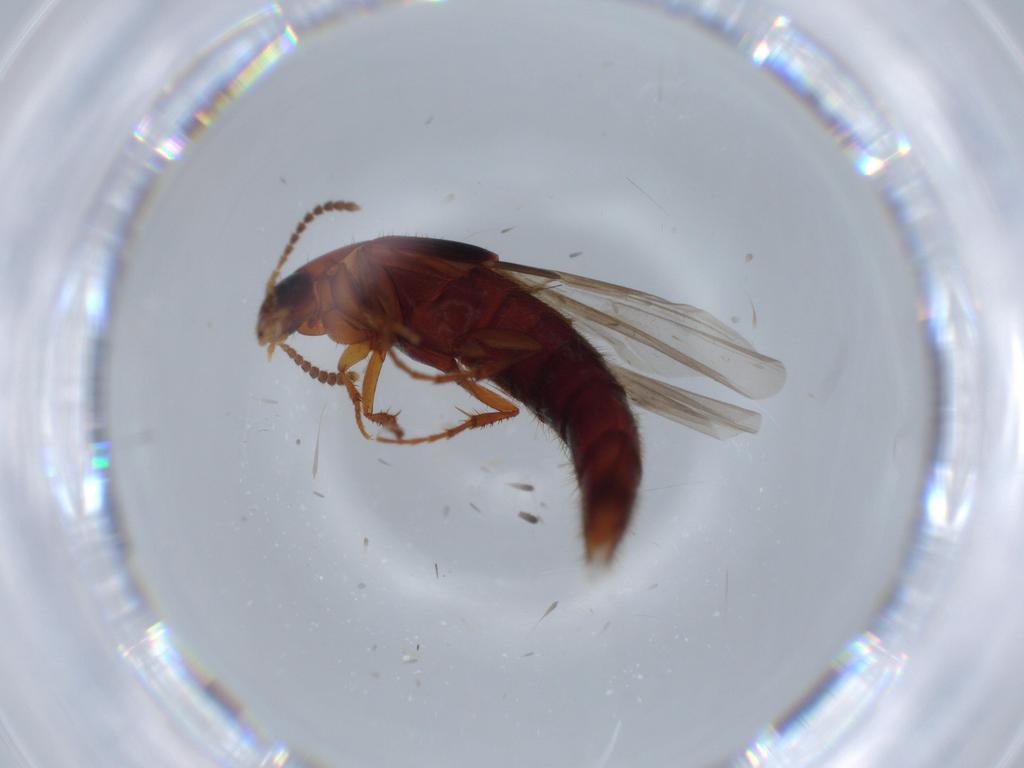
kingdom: Animalia
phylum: Arthropoda
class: Insecta
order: Coleoptera
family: Staphylinidae
